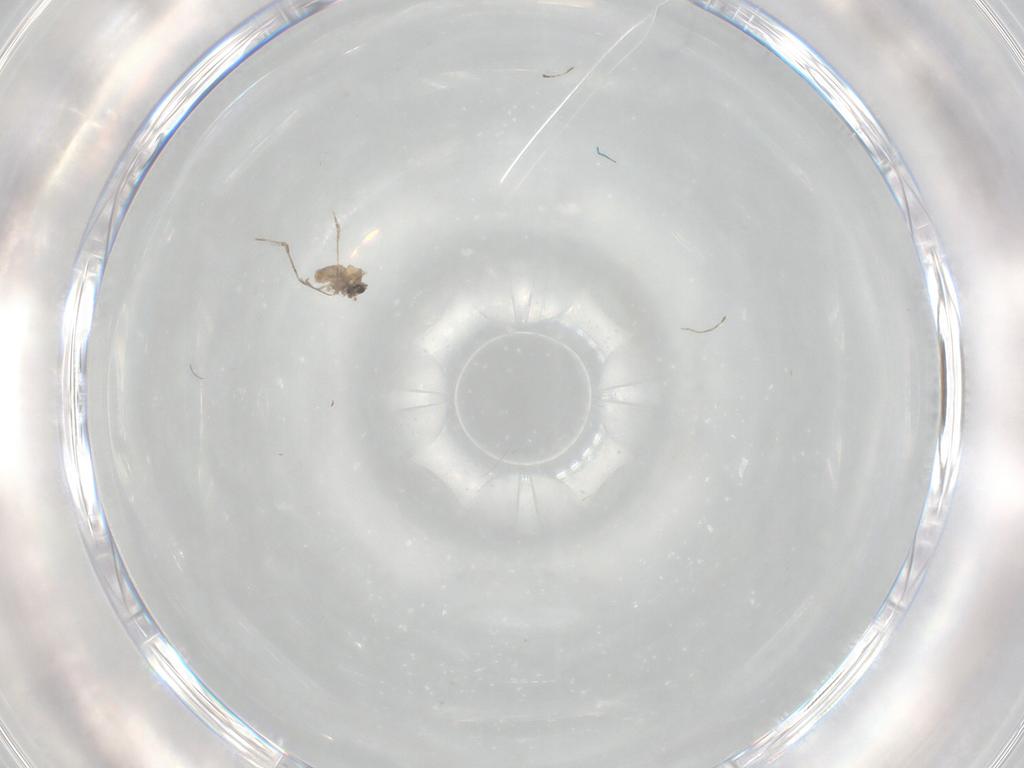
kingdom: Animalia
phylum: Arthropoda
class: Insecta
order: Diptera
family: Cecidomyiidae
